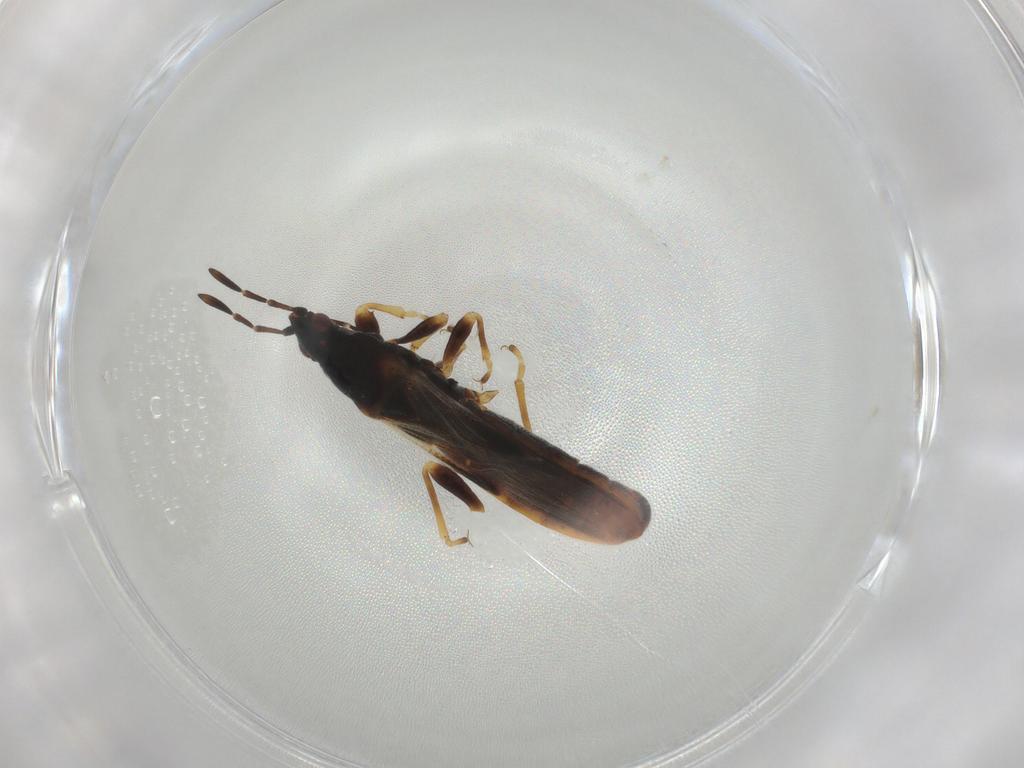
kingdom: Animalia
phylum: Arthropoda
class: Insecta
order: Hemiptera
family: Blissidae
